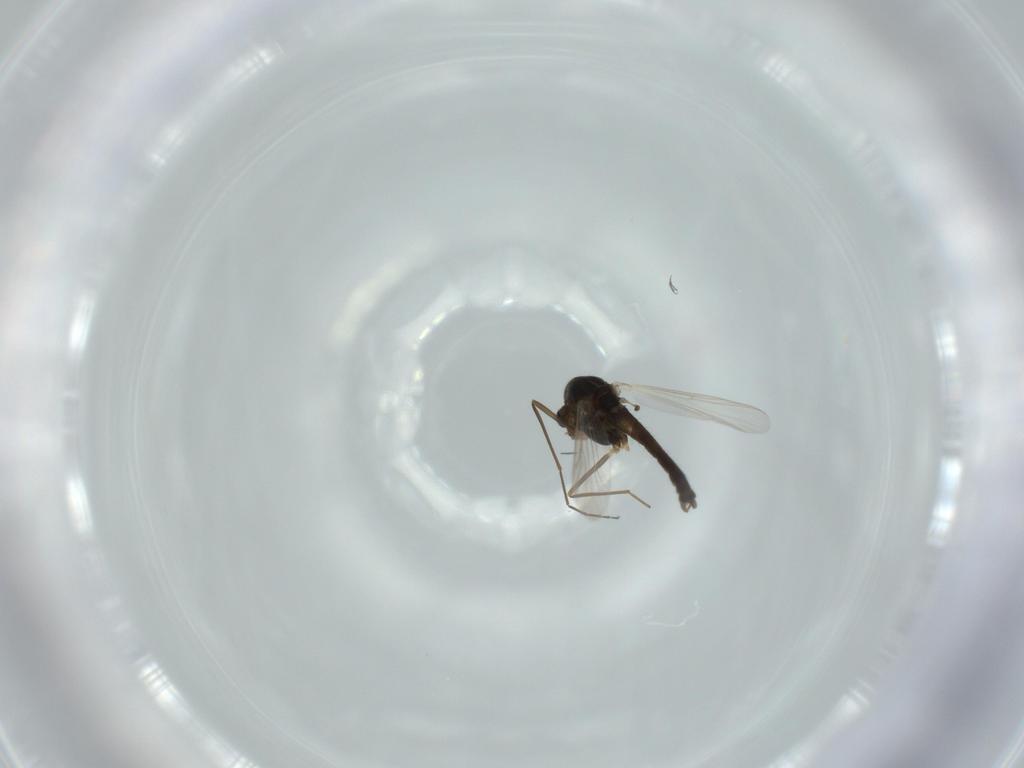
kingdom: Animalia
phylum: Arthropoda
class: Insecta
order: Diptera
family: Chironomidae
